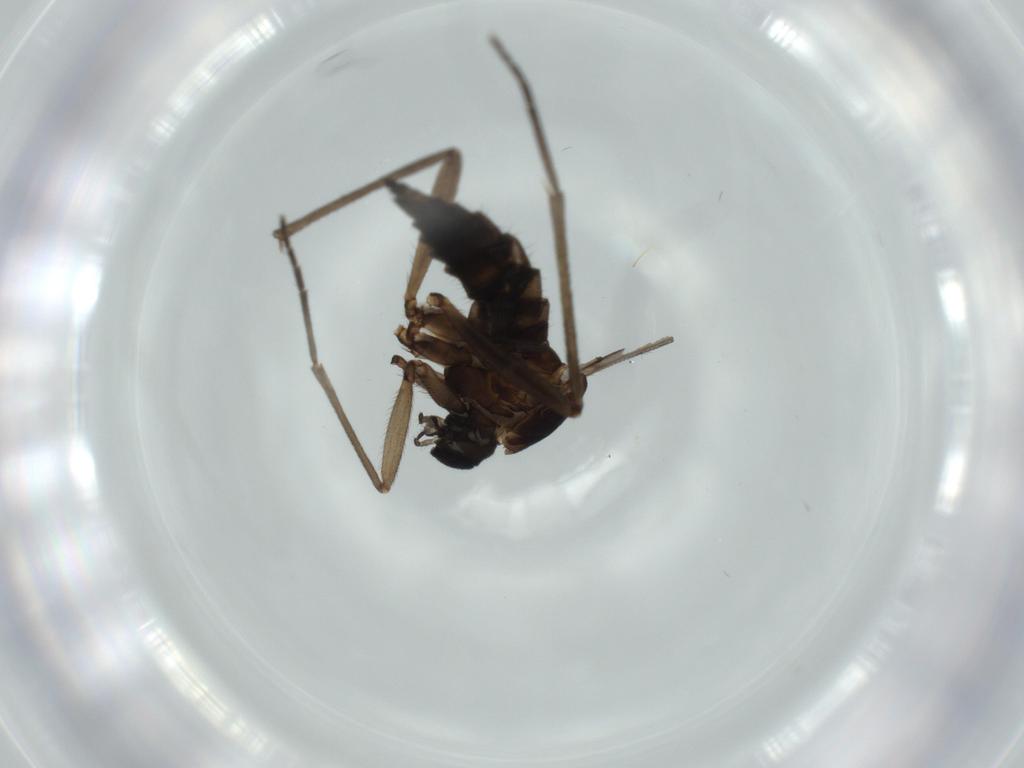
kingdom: Animalia
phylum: Arthropoda
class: Insecta
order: Diptera
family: Sciaridae
